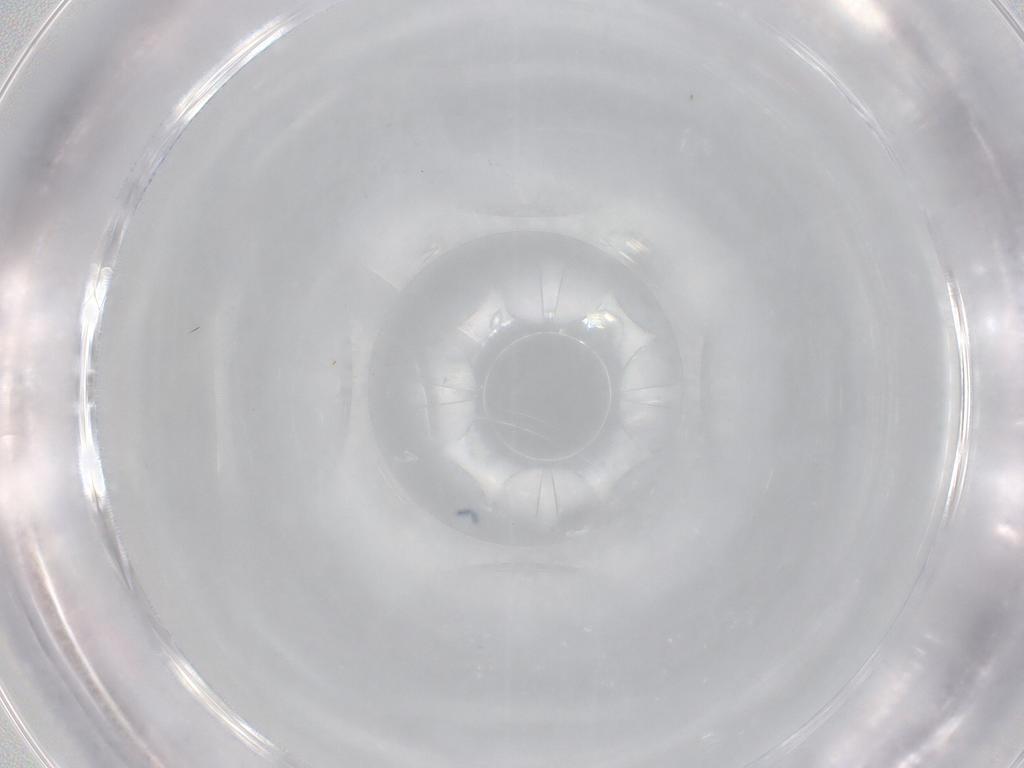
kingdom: Animalia
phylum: Arthropoda
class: Insecta
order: Hymenoptera
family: Platygastridae
